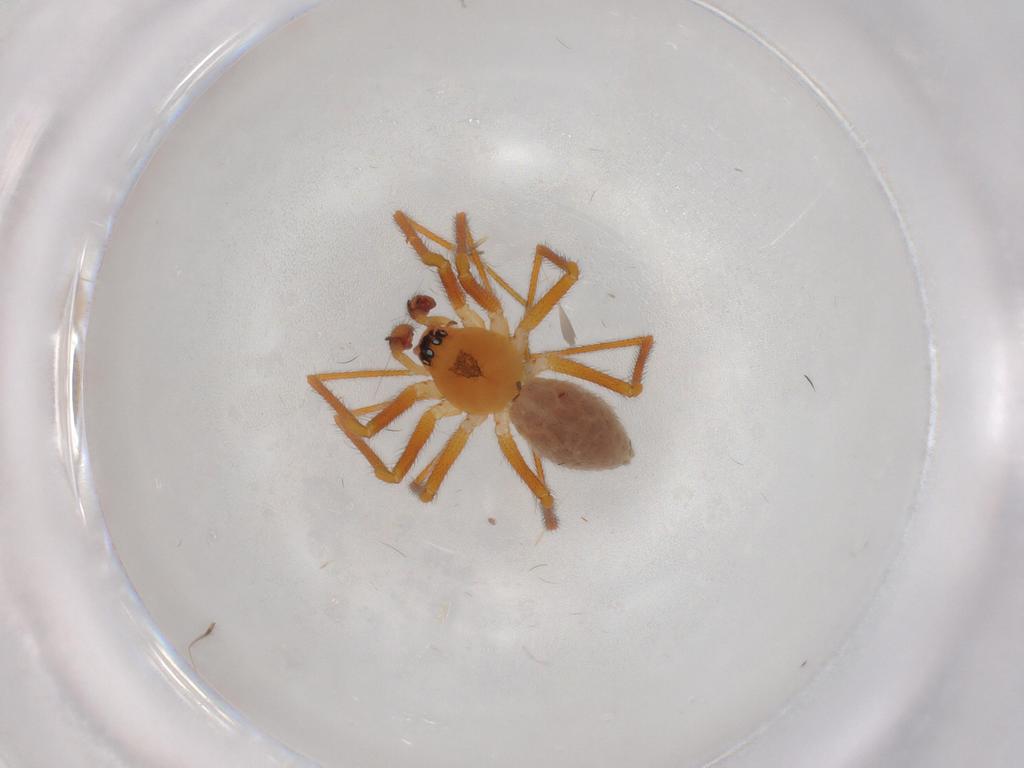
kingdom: Animalia
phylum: Arthropoda
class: Arachnida
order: Araneae
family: Linyphiidae
